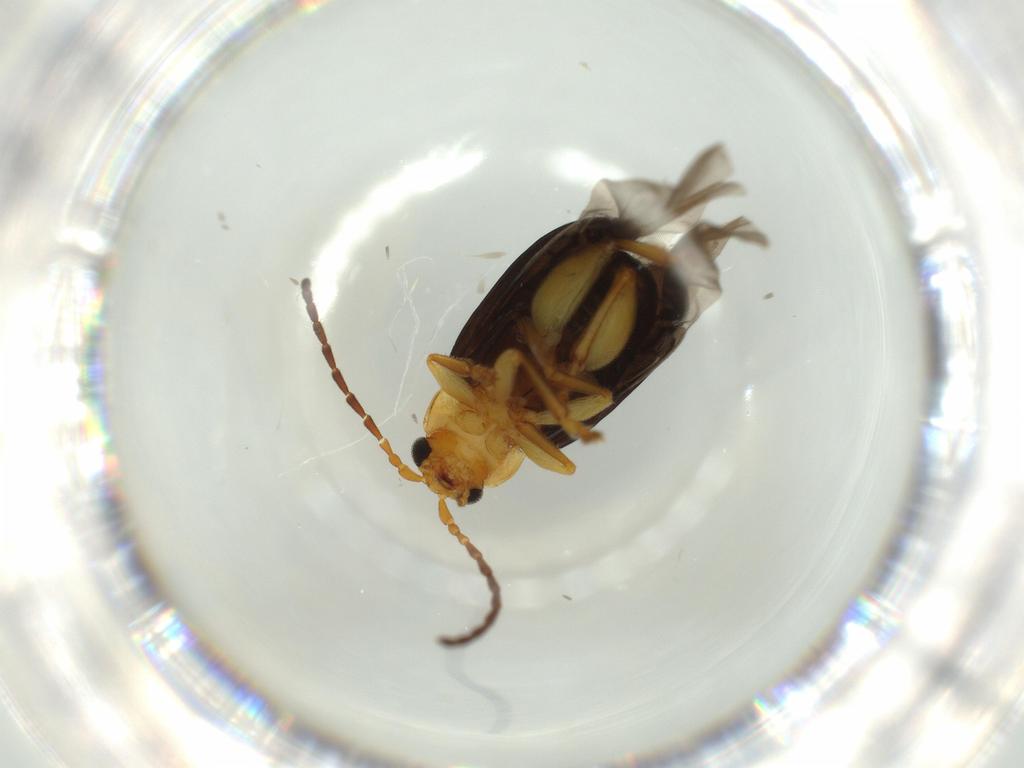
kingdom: Animalia
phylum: Arthropoda
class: Insecta
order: Coleoptera
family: Chrysomelidae
